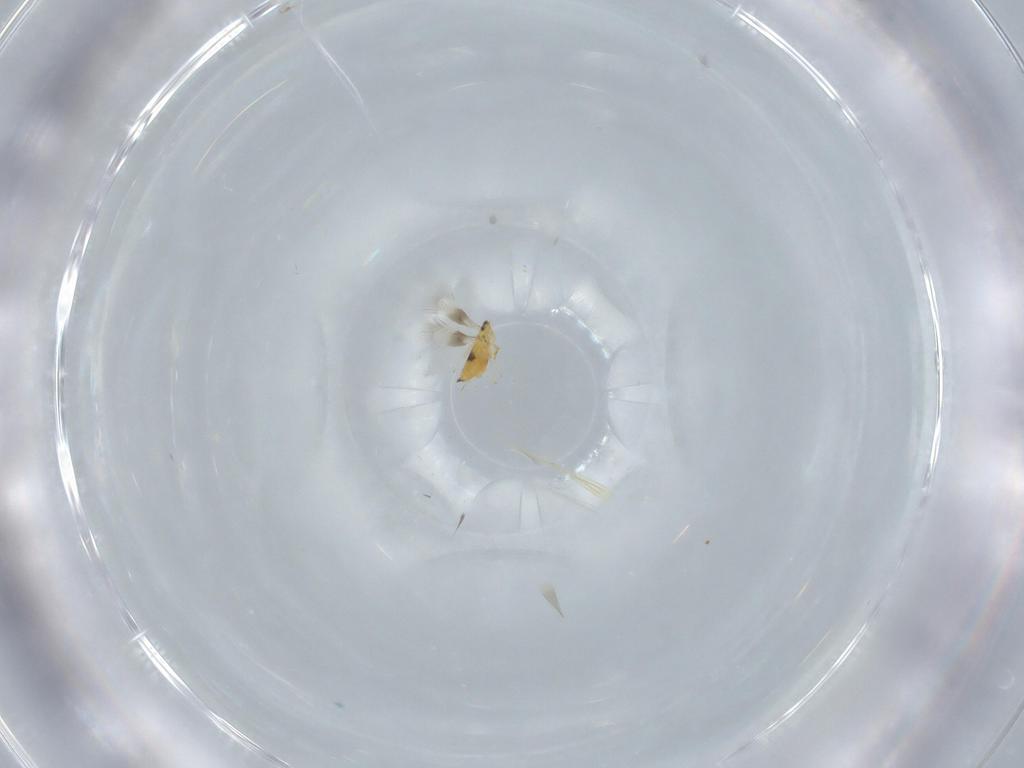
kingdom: Animalia
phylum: Arthropoda
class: Insecta
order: Hymenoptera
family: Signiphoridae
